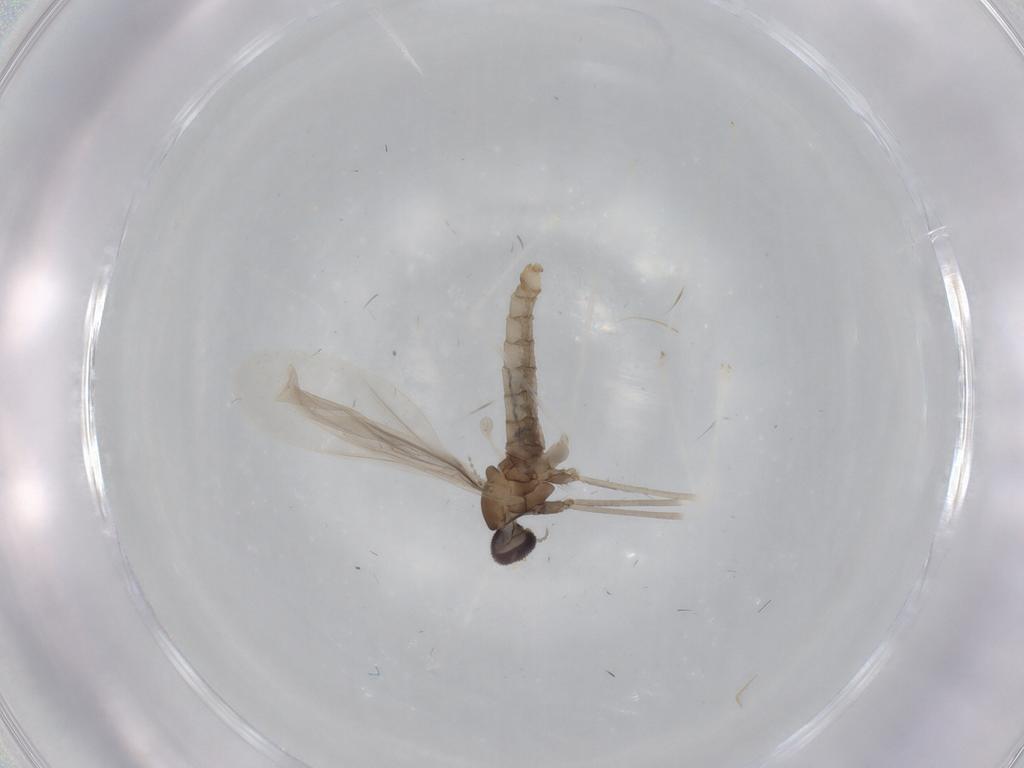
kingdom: Animalia
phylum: Arthropoda
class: Insecta
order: Diptera
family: Cecidomyiidae
